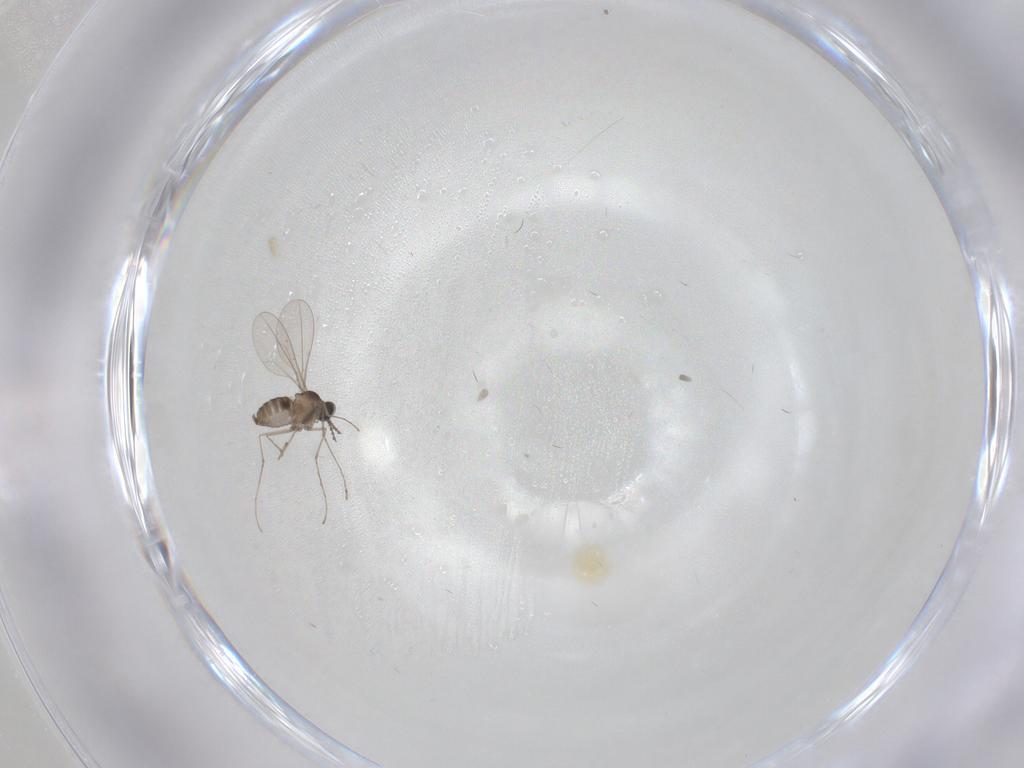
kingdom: Animalia
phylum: Arthropoda
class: Insecta
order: Diptera
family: Cecidomyiidae
